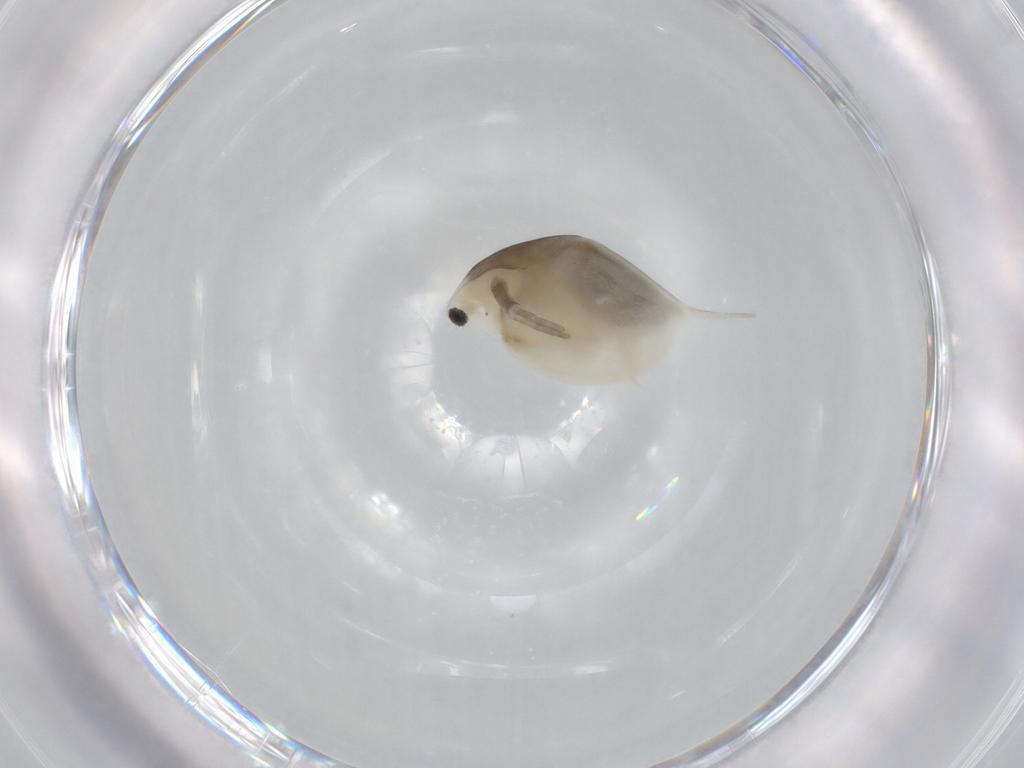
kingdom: Animalia
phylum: Arthropoda
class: Branchiopoda
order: Diplostraca
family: Daphniidae
